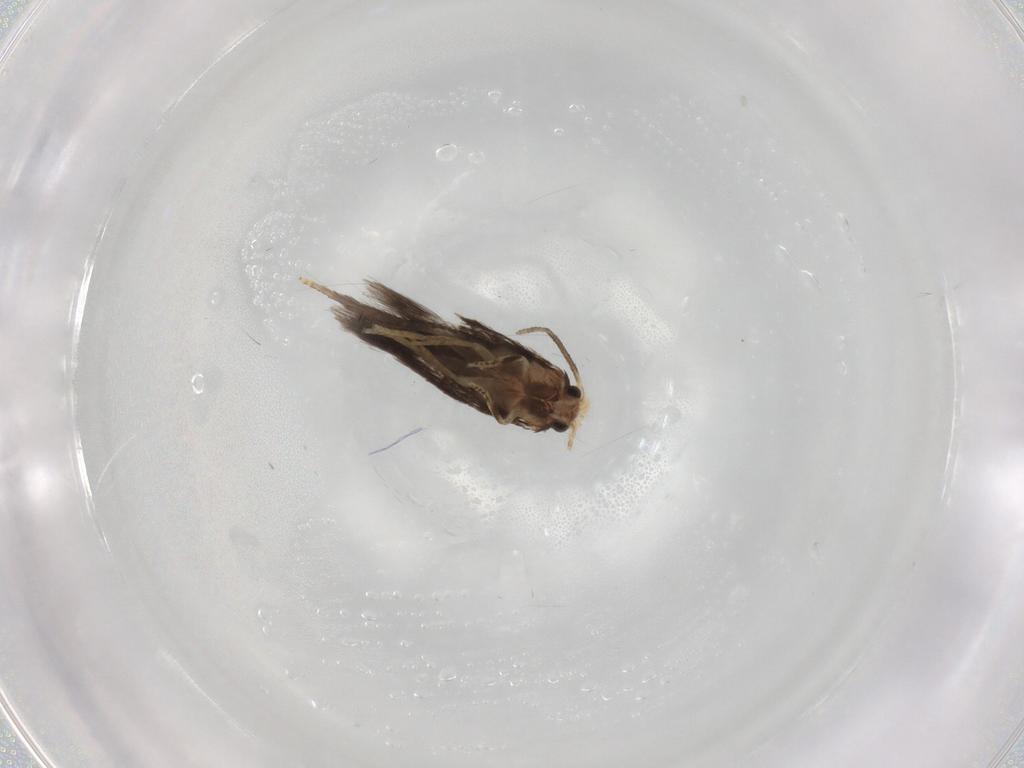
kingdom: Animalia
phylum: Arthropoda
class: Insecta
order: Lepidoptera
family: Nepticulidae
